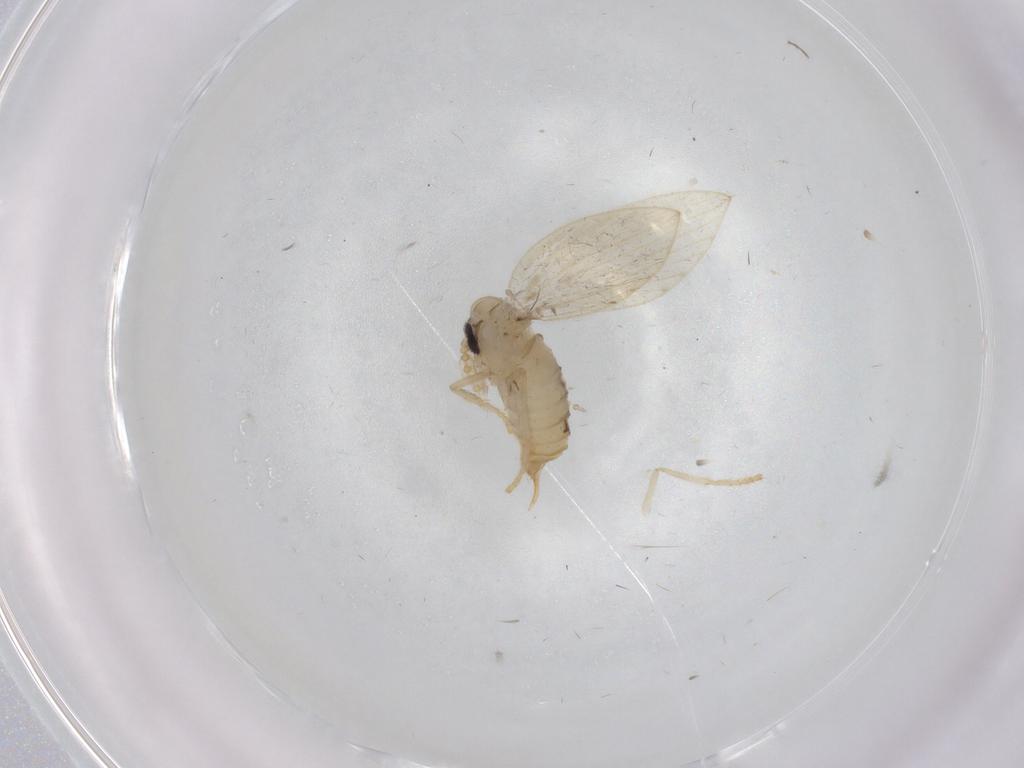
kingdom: Animalia
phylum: Arthropoda
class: Insecta
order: Diptera
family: Psychodidae
